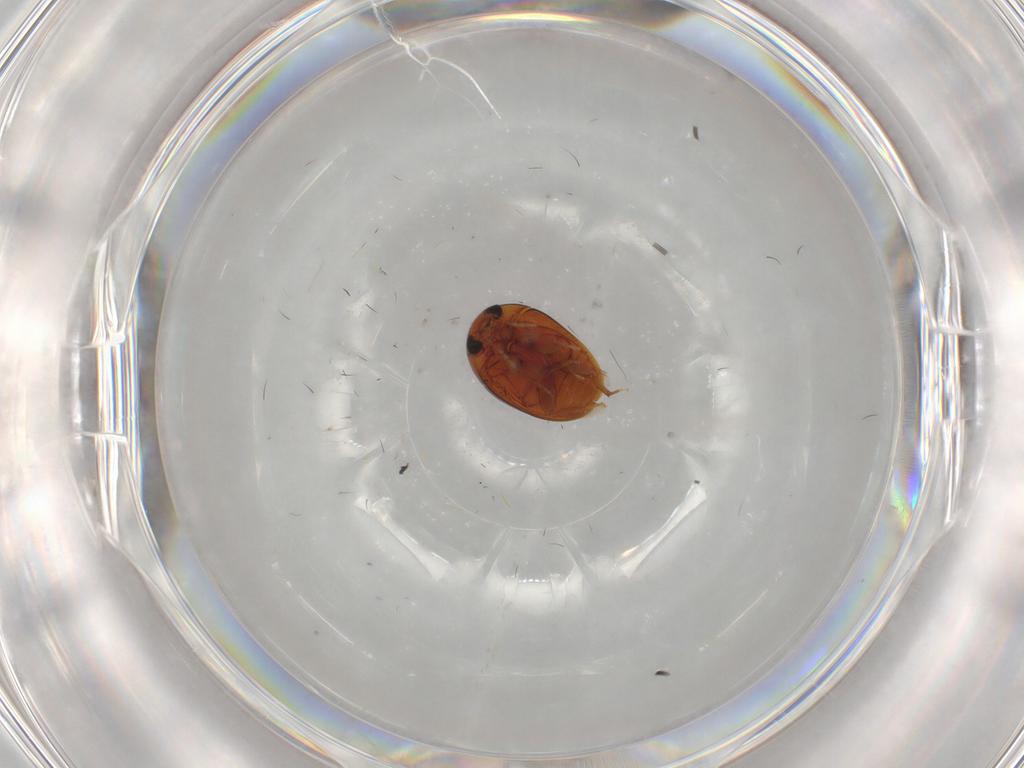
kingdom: Animalia
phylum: Arthropoda
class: Insecta
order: Coleoptera
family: Phalacridae
